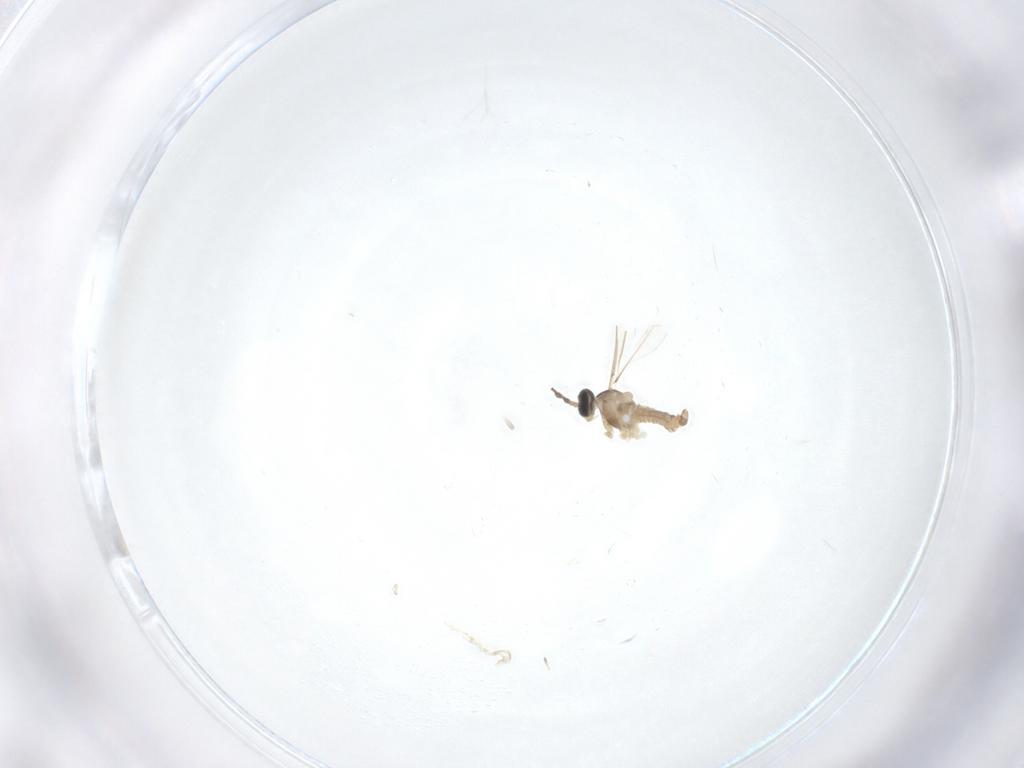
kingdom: Animalia
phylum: Arthropoda
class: Insecta
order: Diptera
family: Cecidomyiidae
